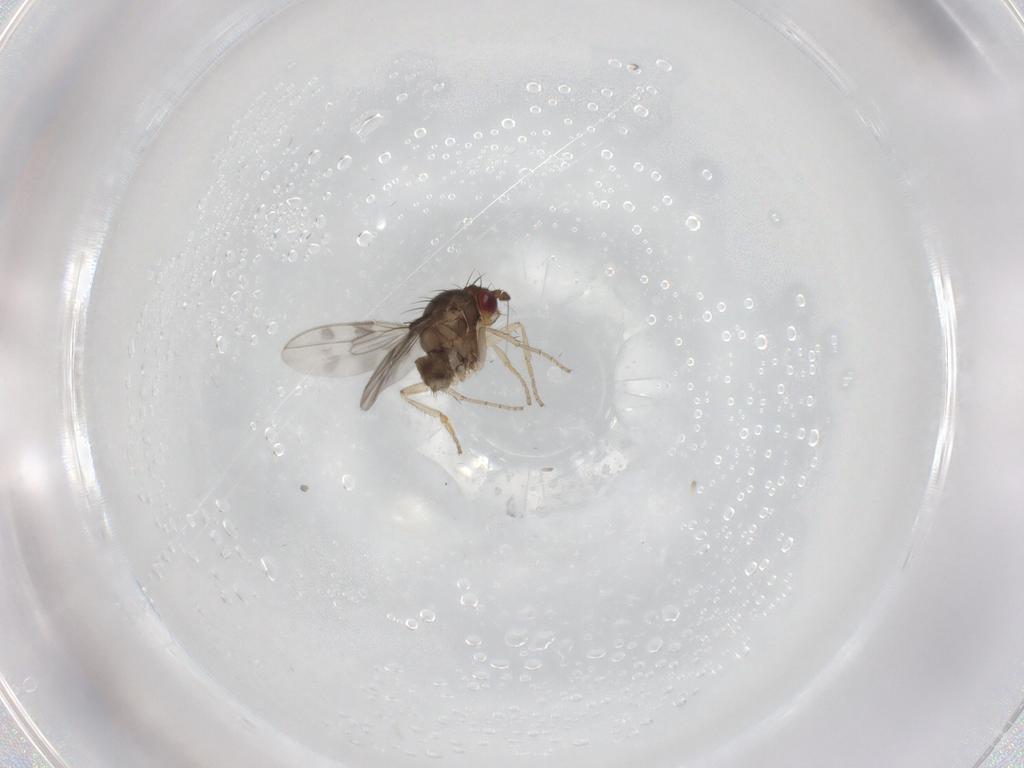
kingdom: Animalia
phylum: Arthropoda
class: Insecta
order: Diptera
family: Sphaeroceridae
